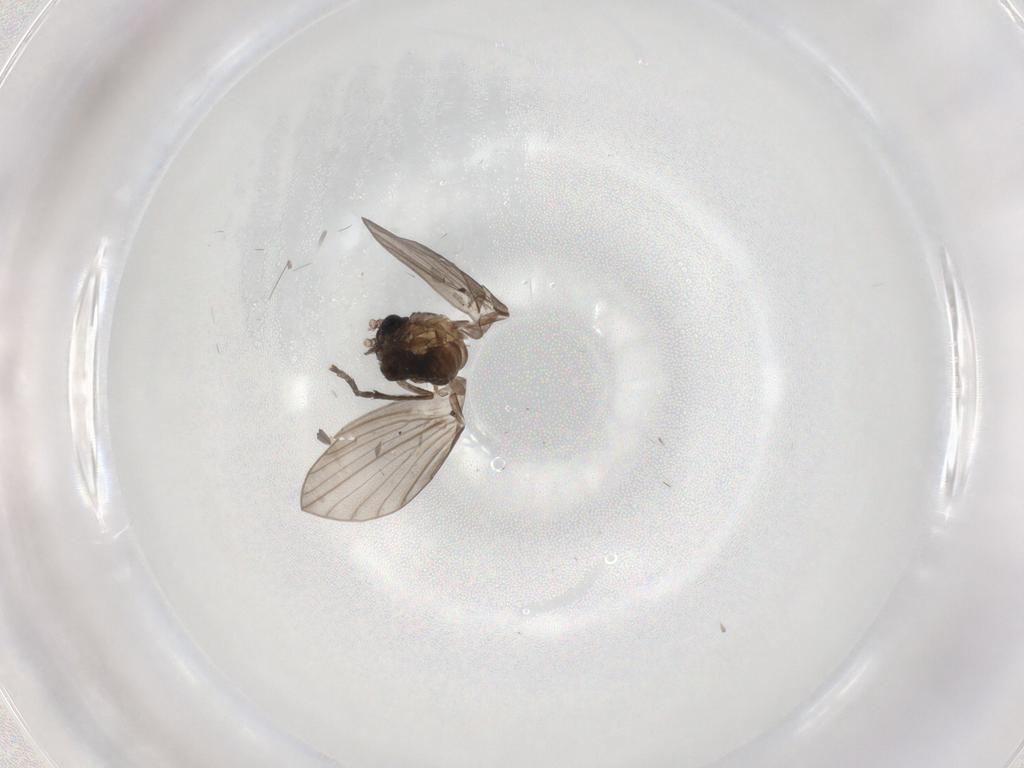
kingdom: Animalia
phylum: Arthropoda
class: Insecta
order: Diptera
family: Psychodidae
